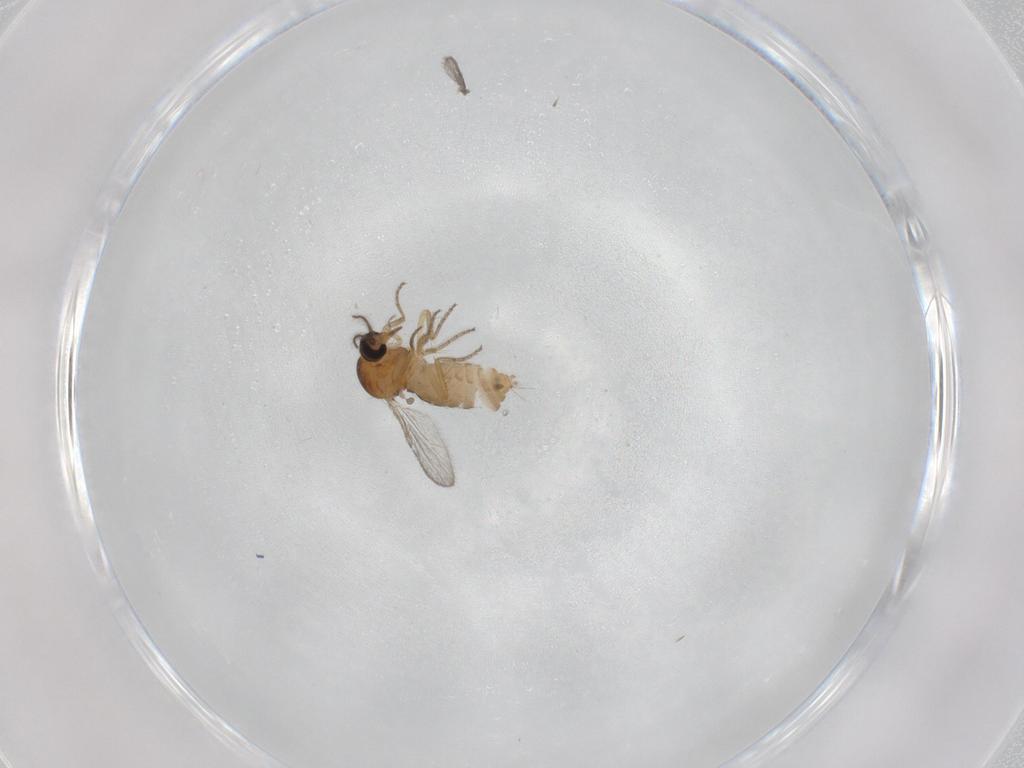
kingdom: Animalia
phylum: Arthropoda
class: Insecta
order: Diptera
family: Ceratopogonidae
